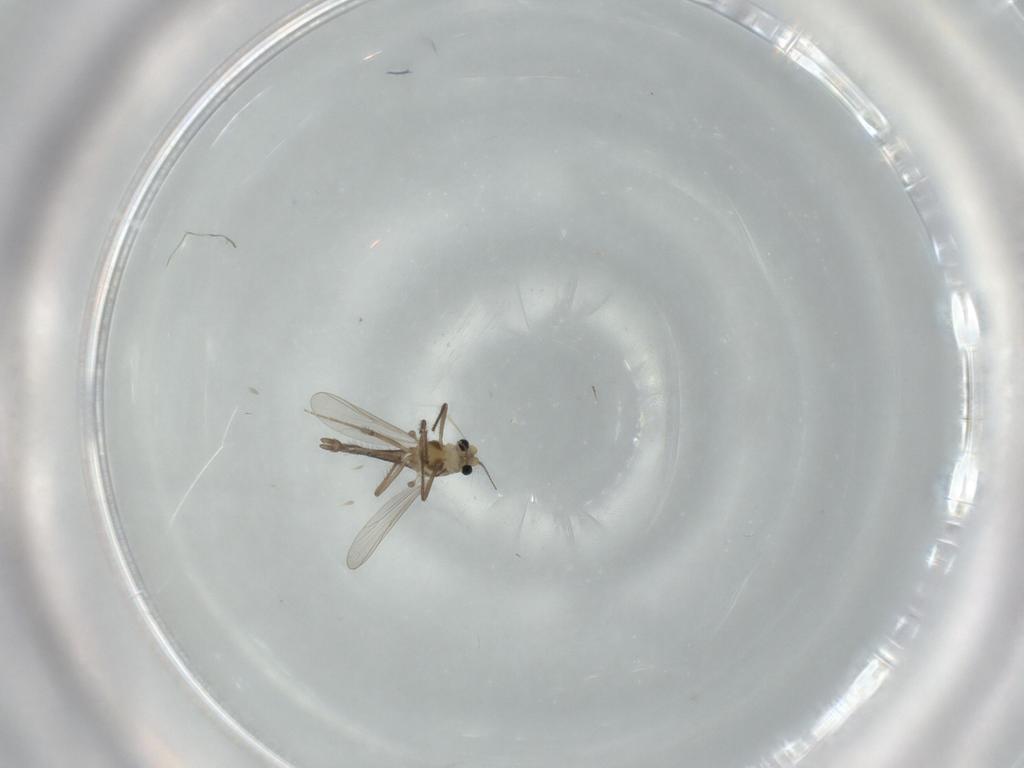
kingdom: Animalia
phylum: Arthropoda
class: Insecta
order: Diptera
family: Chironomidae
